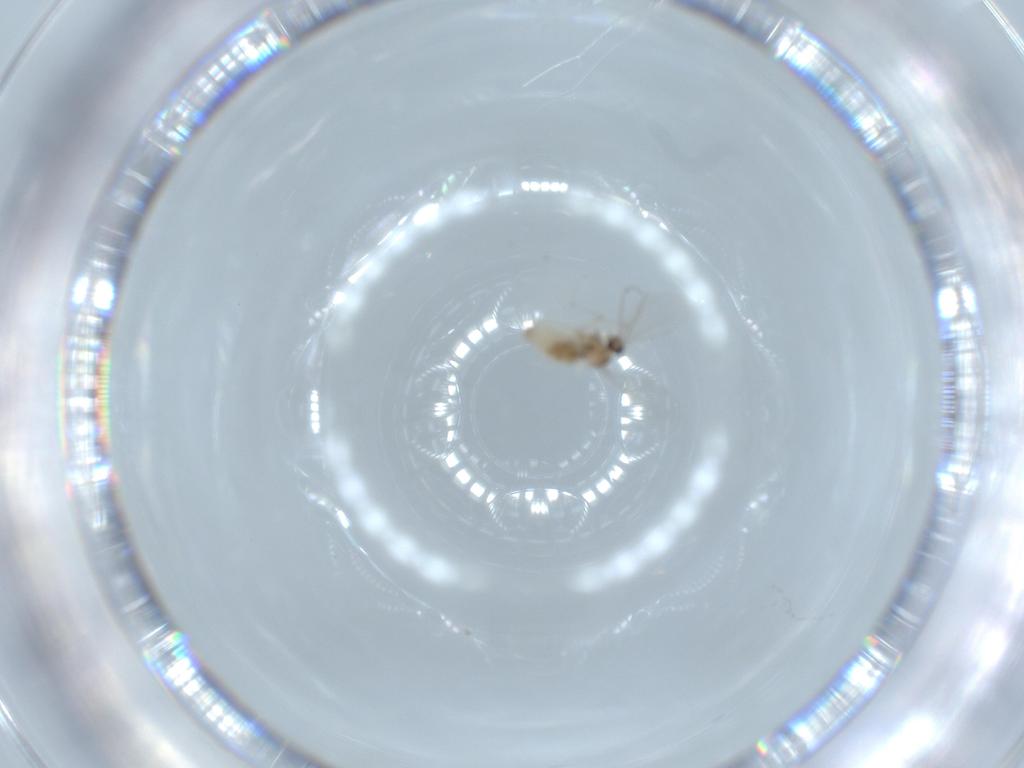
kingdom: Animalia
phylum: Arthropoda
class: Insecta
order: Diptera
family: Cecidomyiidae
